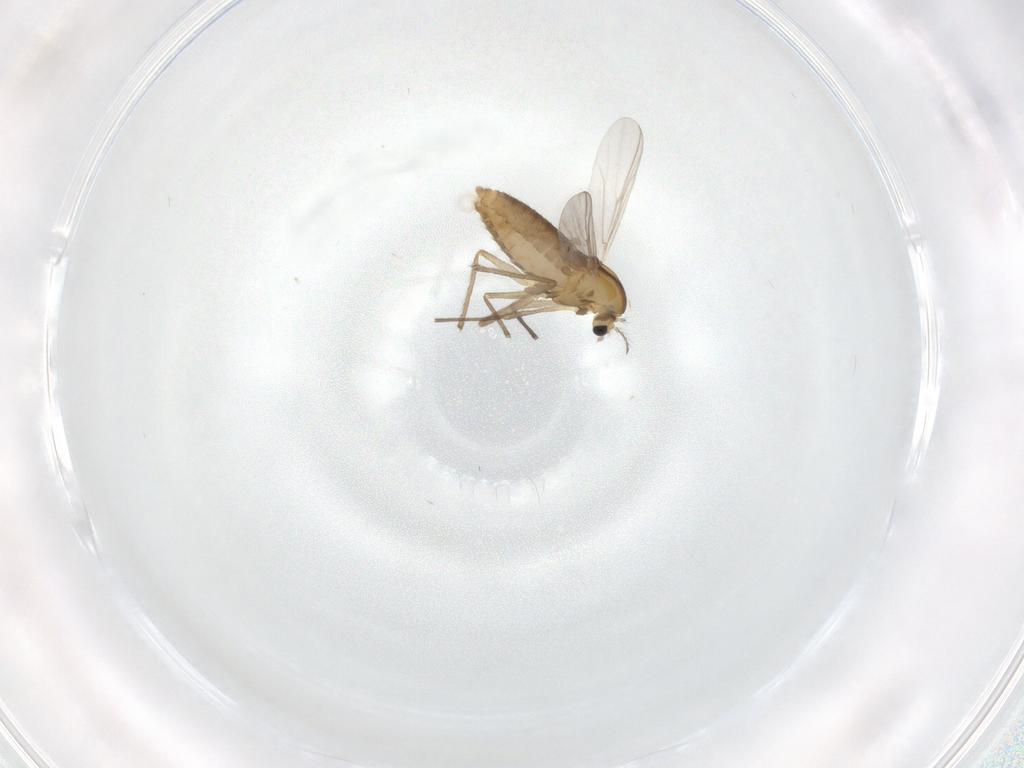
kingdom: Animalia
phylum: Arthropoda
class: Insecta
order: Diptera
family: Chironomidae
